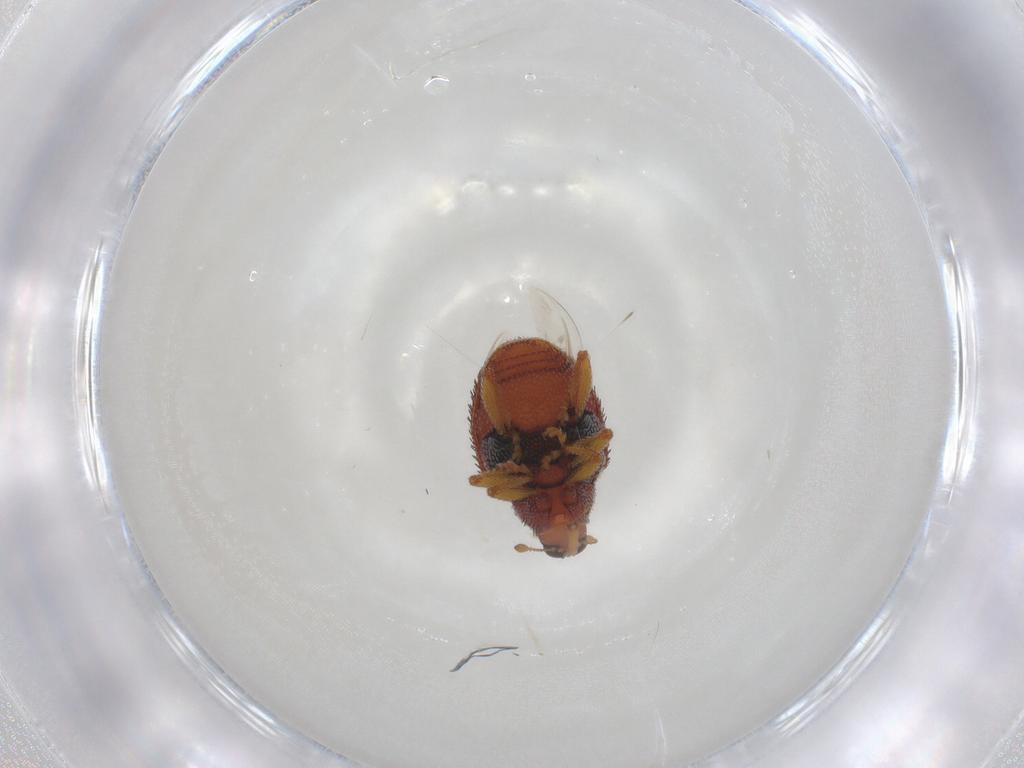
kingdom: Animalia
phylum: Arthropoda
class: Insecta
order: Coleoptera
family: Curculionidae
